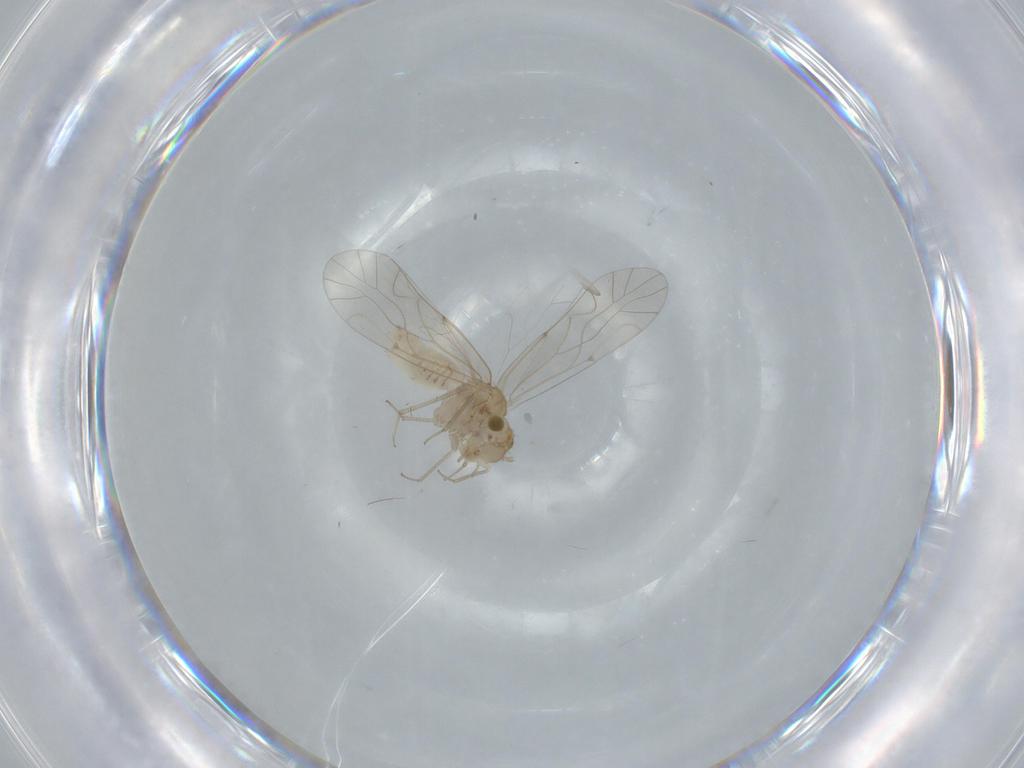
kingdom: Animalia
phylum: Arthropoda
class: Insecta
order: Psocodea
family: Lachesillidae
